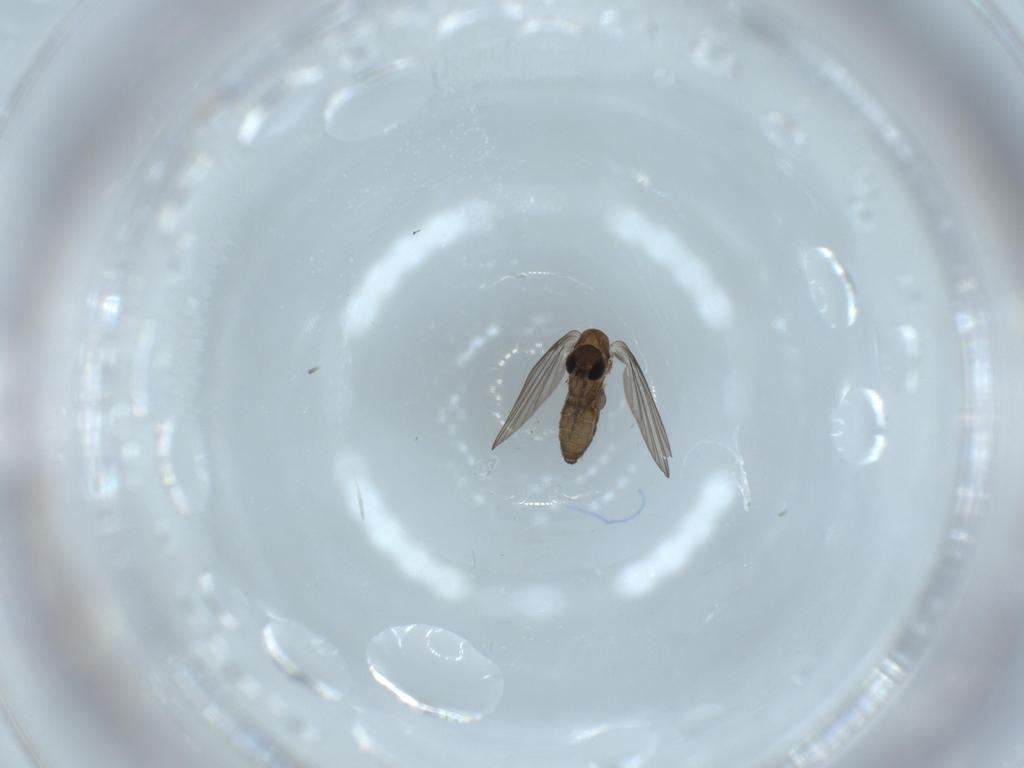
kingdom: Animalia
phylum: Arthropoda
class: Insecta
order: Diptera
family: Psychodidae
